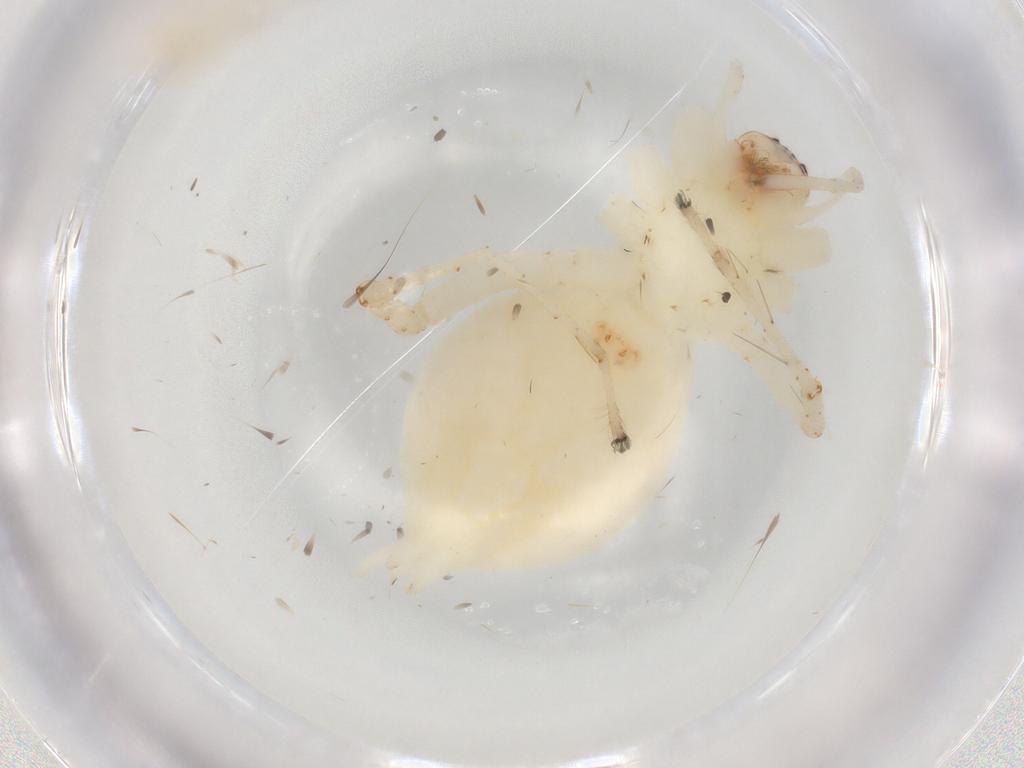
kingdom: Animalia
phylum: Arthropoda
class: Arachnida
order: Araneae
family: Anyphaenidae
